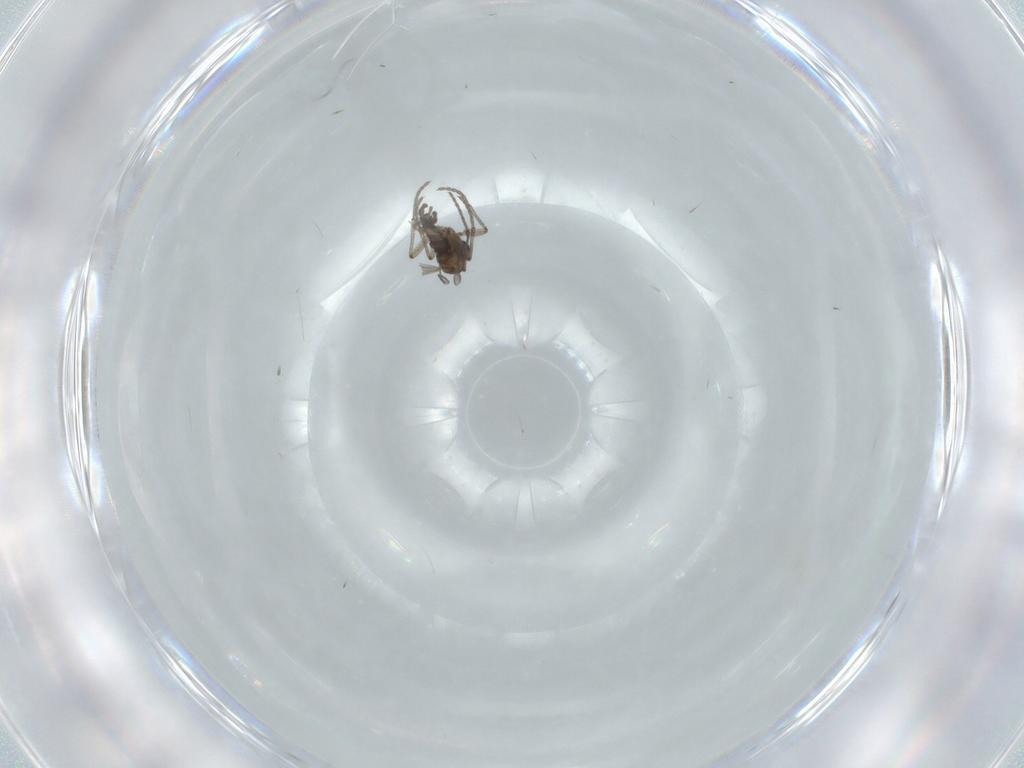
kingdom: Animalia
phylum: Arthropoda
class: Insecta
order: Diptera
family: Sciaridae
